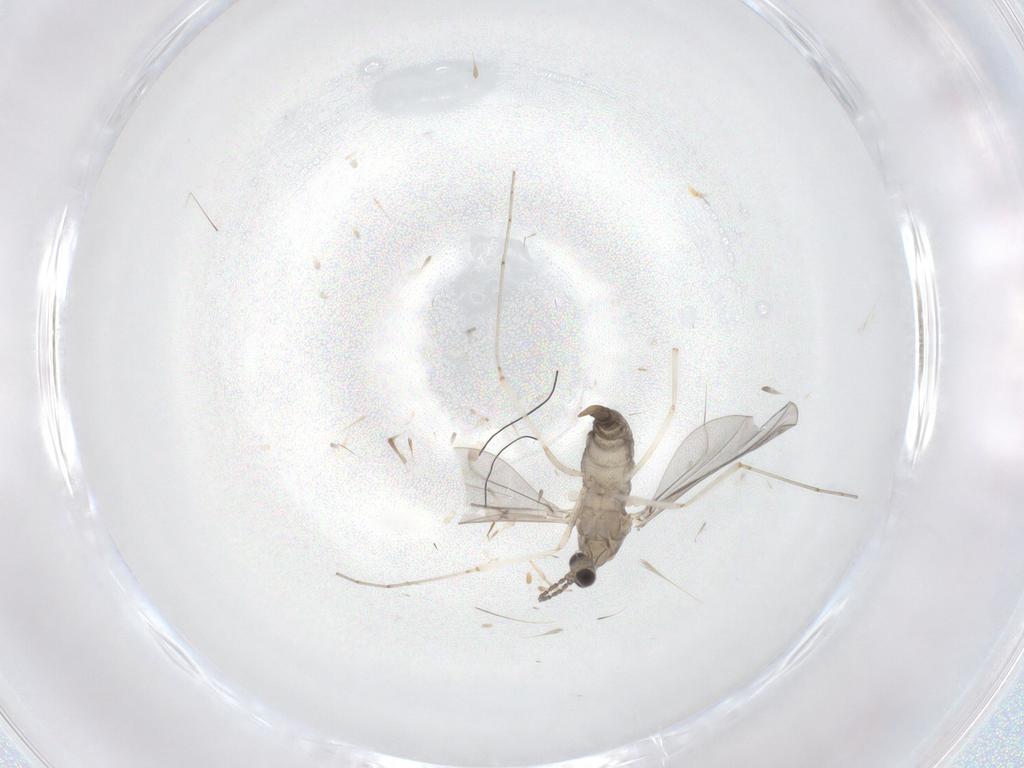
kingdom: Animalia
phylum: Arthropoda
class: Insecta
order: Diptera
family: Cecidomyiidae
